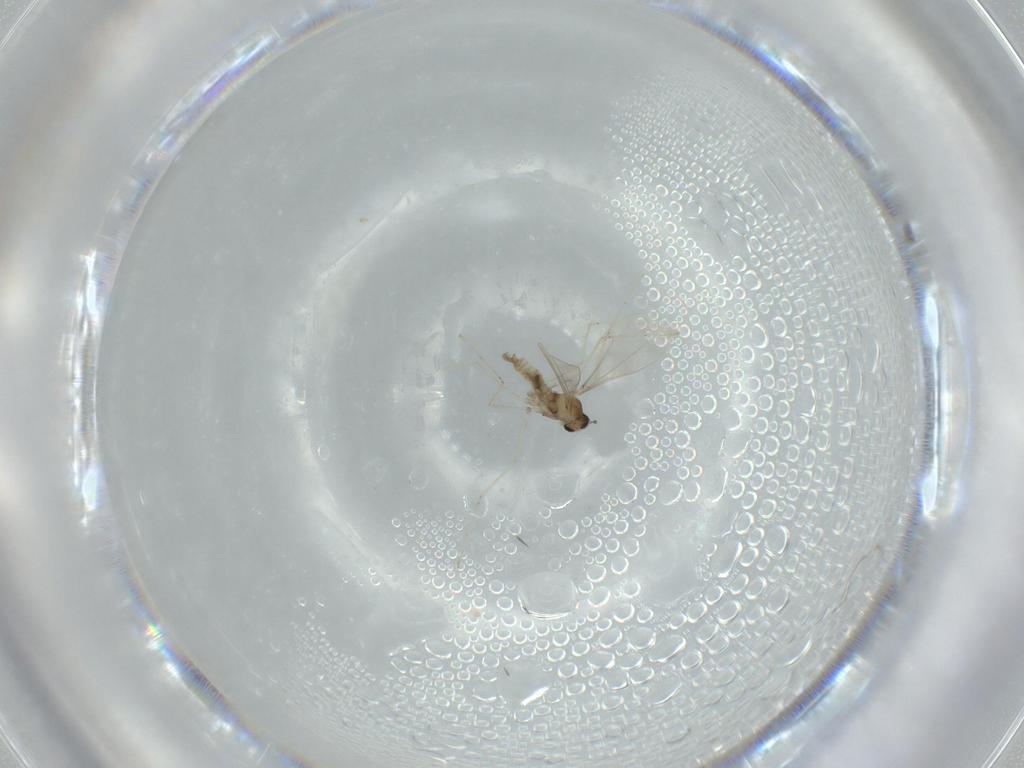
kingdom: Animalia
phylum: Arthropoda
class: Insecta
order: Diptera
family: Cecidomyiidae
